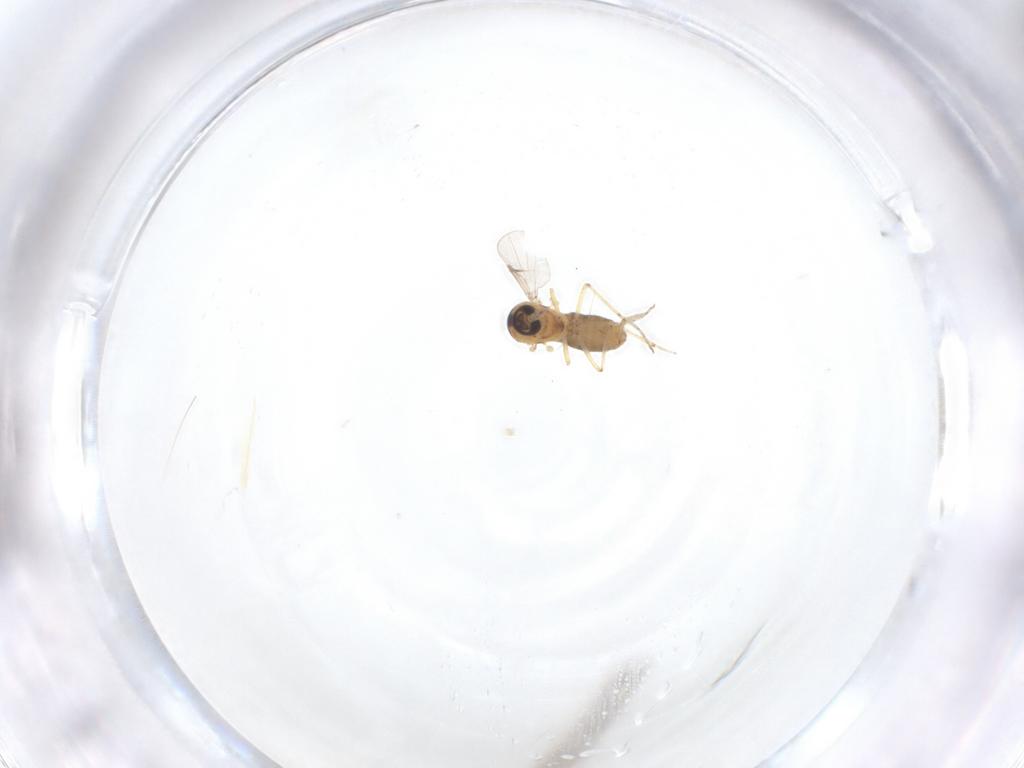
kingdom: Animalia
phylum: Arthropoda
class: Insecta
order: Diptera
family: Ceratopogonidae
